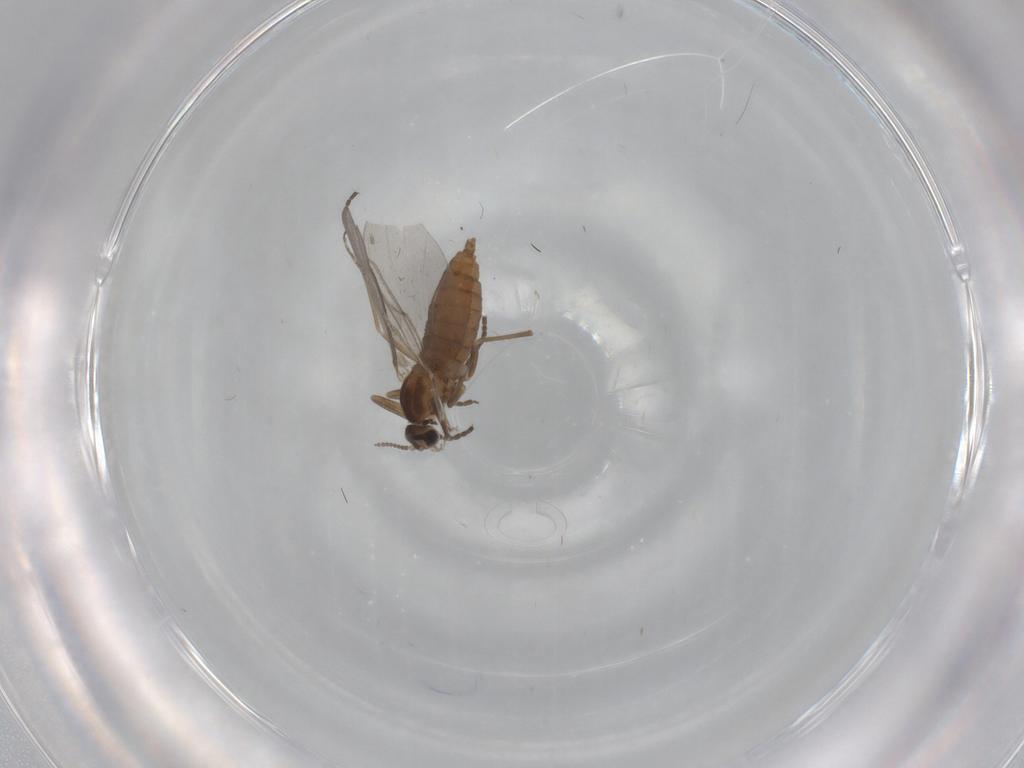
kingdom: Animalia
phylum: Arthropoda
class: Insecta
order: Diptera
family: Cecidomyiidae
